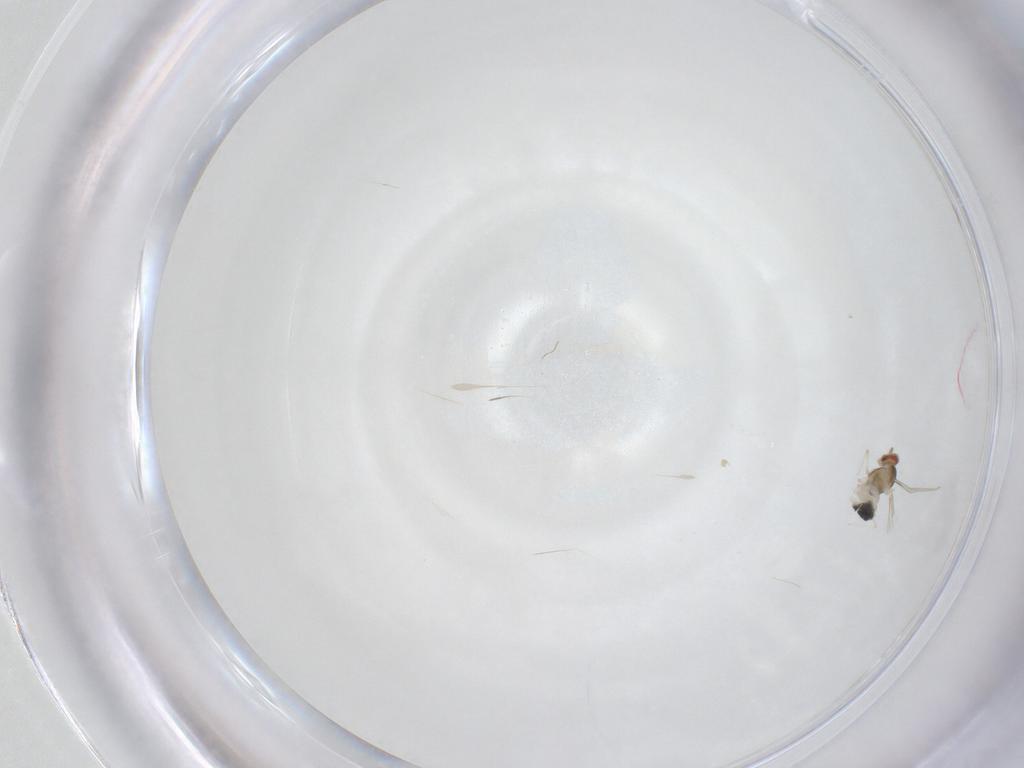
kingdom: Animalia
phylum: Arthropoda
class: Insecta
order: Diptera
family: Cecidomyiidae
